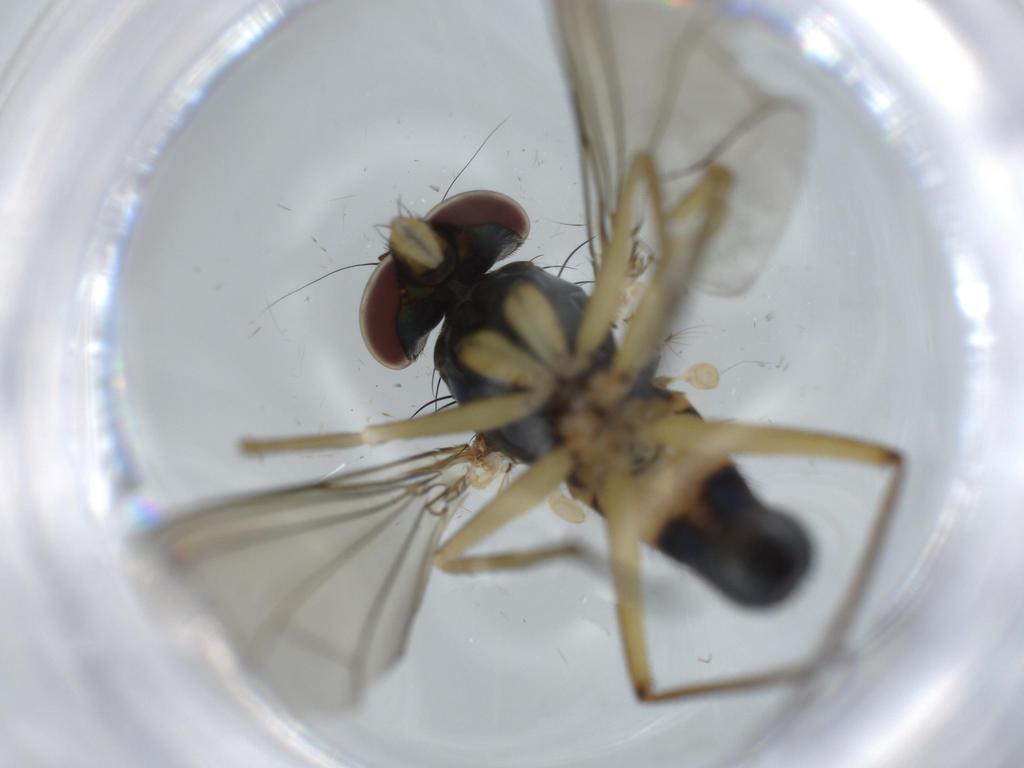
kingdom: Animalia
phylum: Arthropoda
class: Insecta
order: Diptera
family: Dolichopodidae
